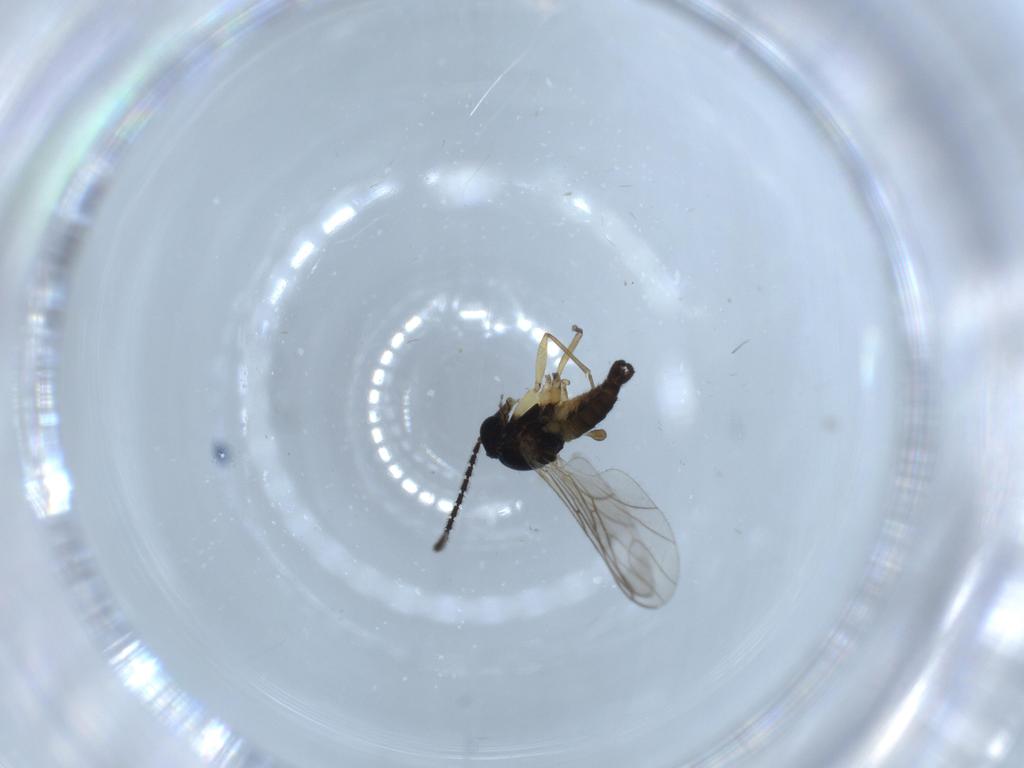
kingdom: Animalia
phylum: Arthropoda
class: Insecta
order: Diptera
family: Sciaridae
